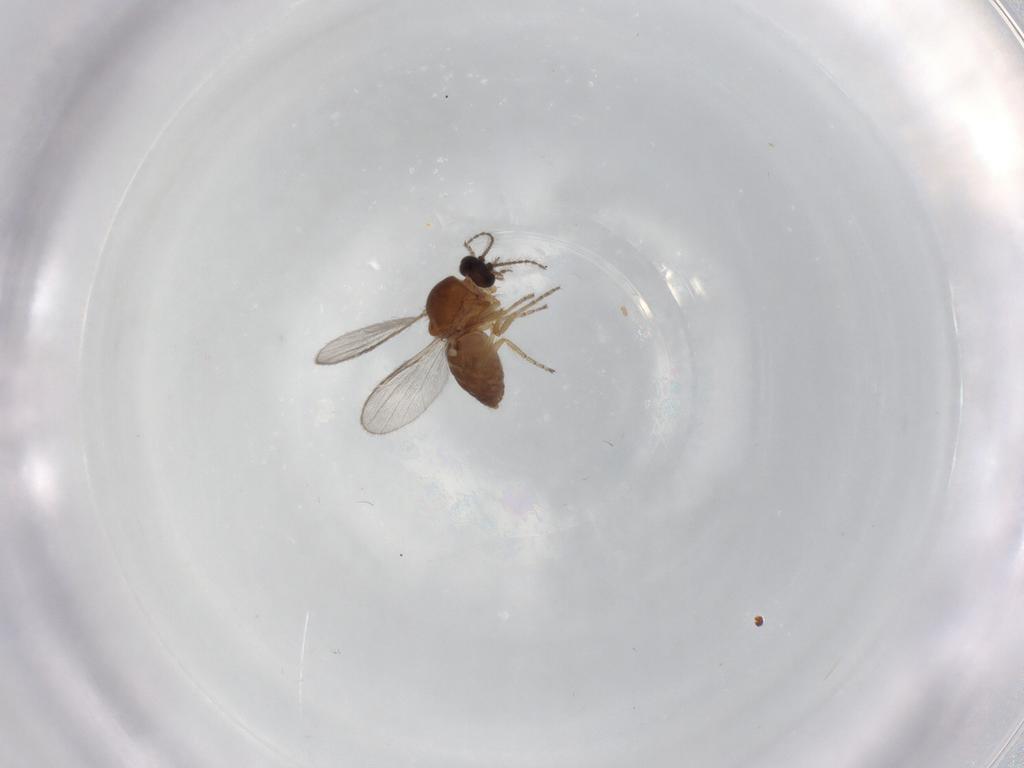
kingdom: Animalia
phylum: Arthropoda
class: Insecta
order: Diptera
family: Ceratopogonidae
